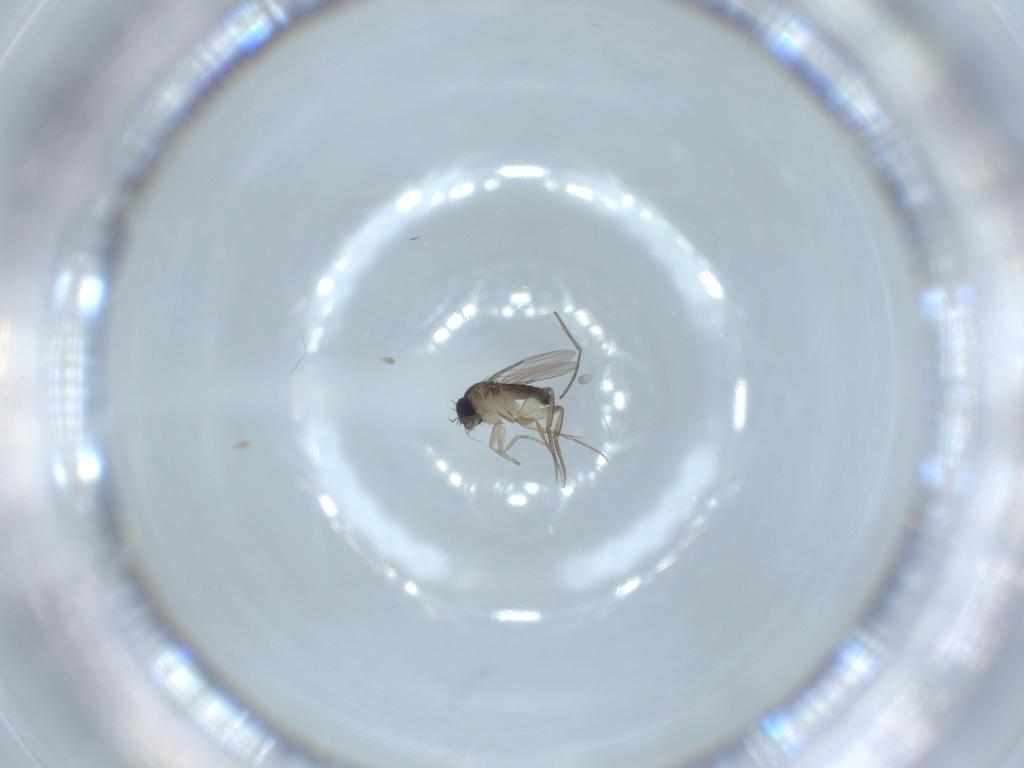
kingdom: Animalia
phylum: Arthropoda
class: Insecta
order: Diptera
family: Phoridae
